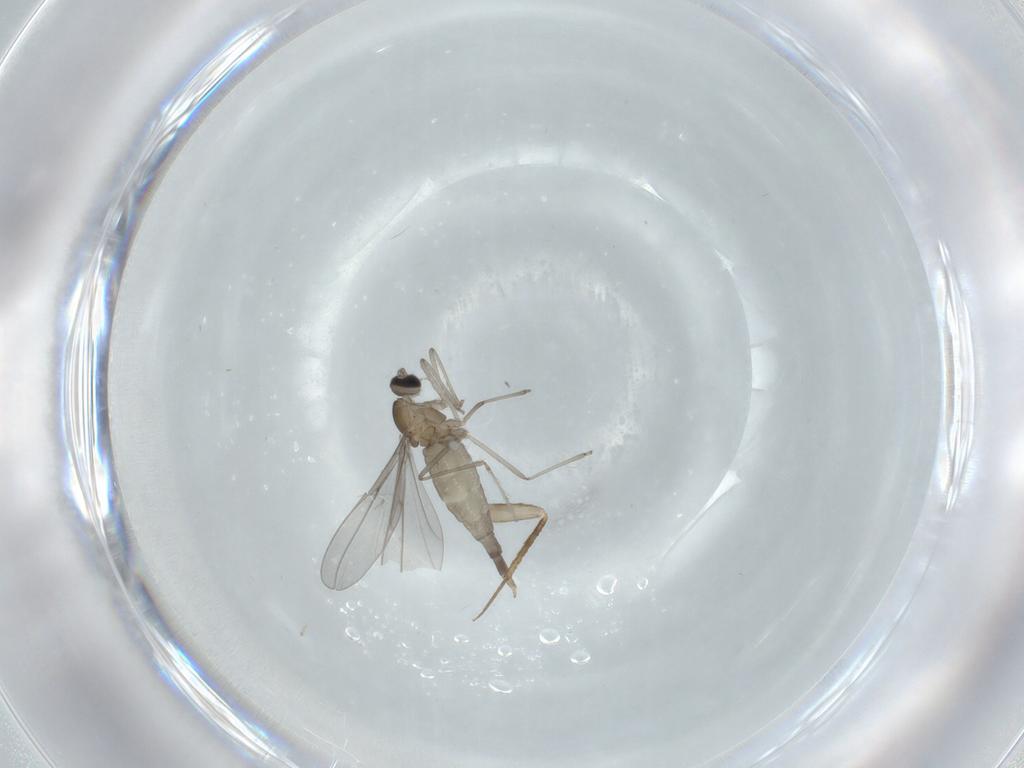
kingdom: Animalia
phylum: Arthropoda
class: Insecta
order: Diptera
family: Phoridae
